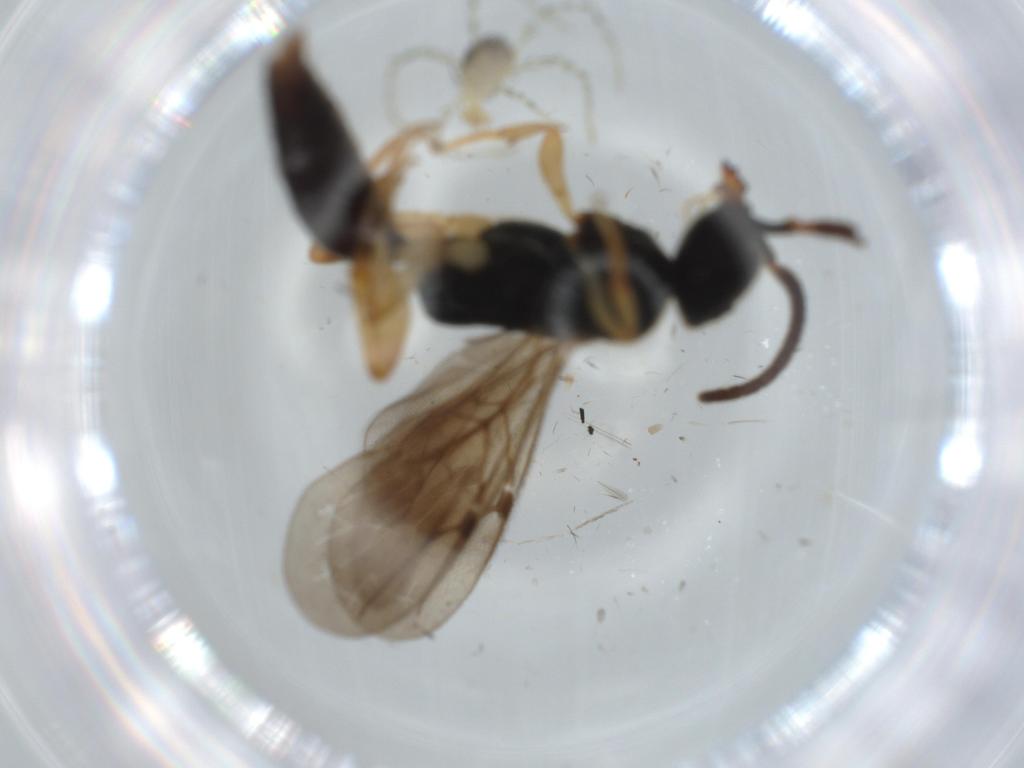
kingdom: Animalia
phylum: Arthropoda
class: Insecta
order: Hymenoptera
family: Bethylidae
